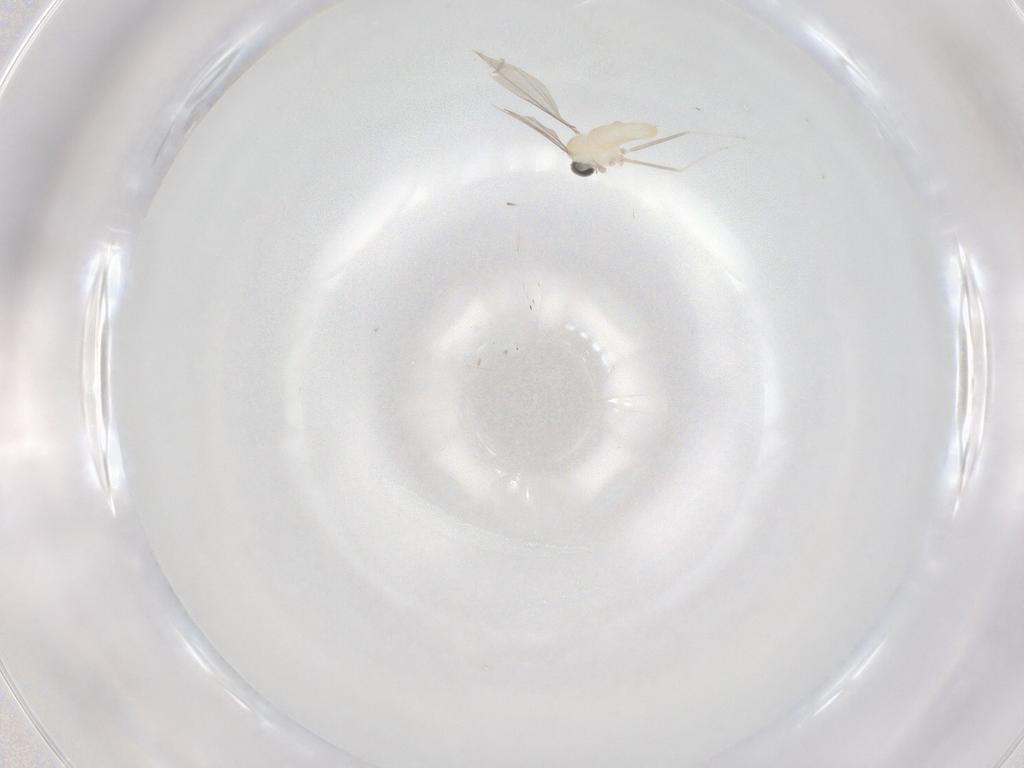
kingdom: Animalia
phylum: Arthropoda
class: Insecta
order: Diptera
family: Cecidomyiidae
